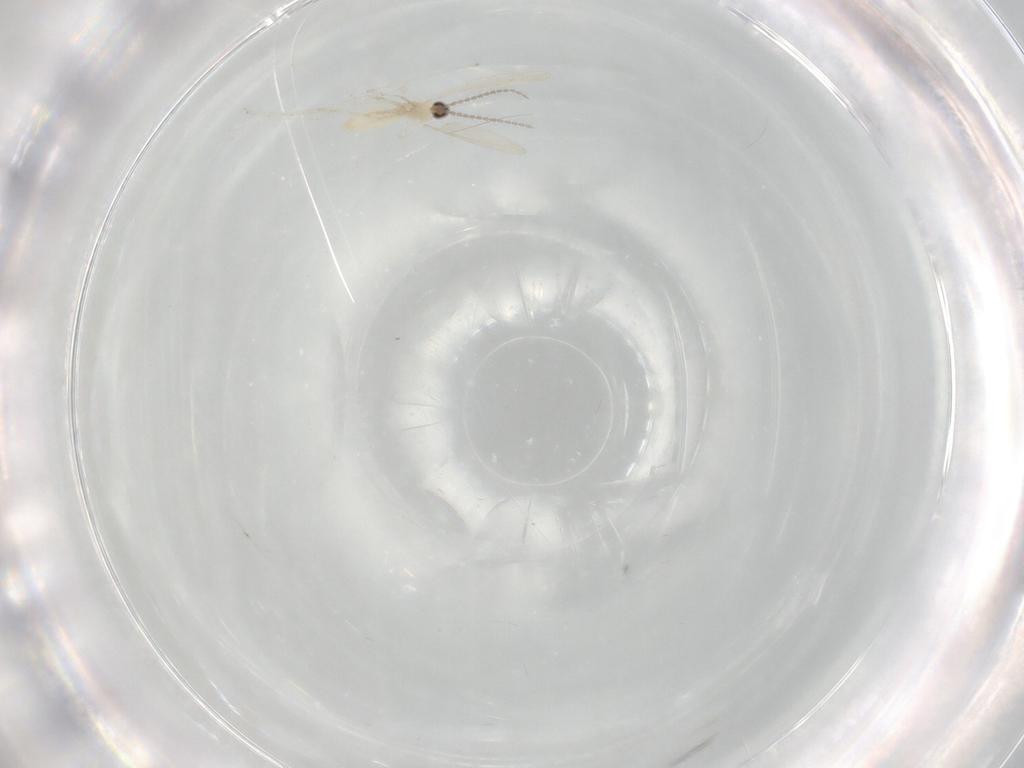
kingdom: Animalia
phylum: Arthropoda
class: Insecta
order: Diptera
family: Cecidomyiidae
